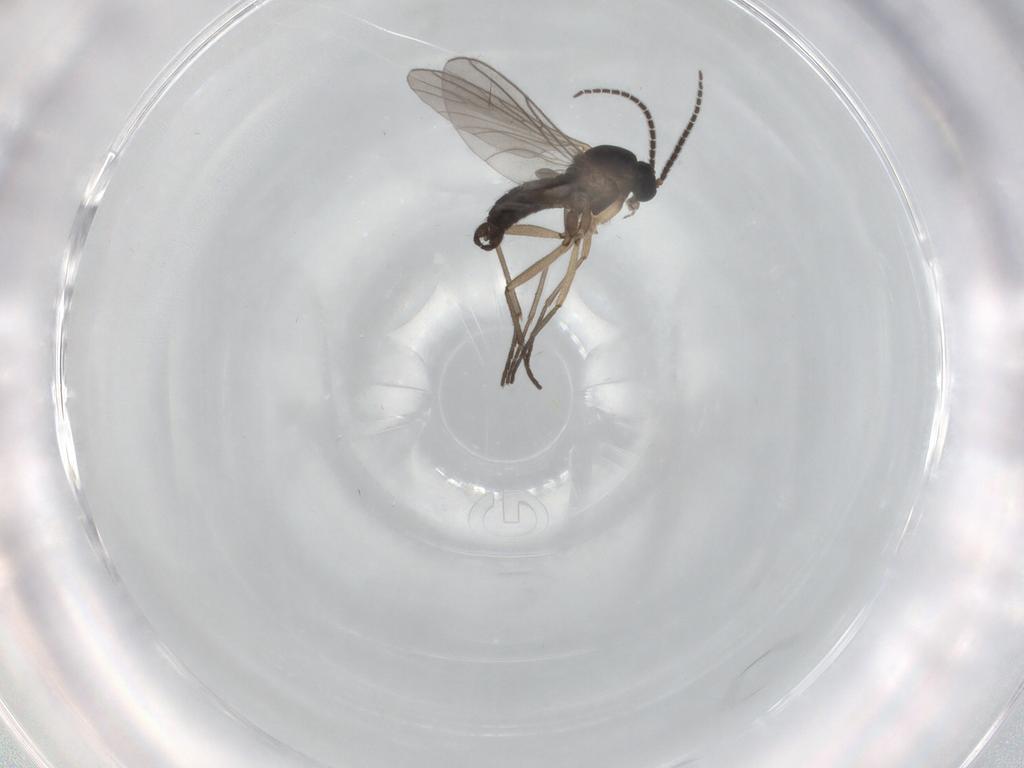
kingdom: Animalia
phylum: Arthropoda
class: Insecta
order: Diptera
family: Sciaridae
